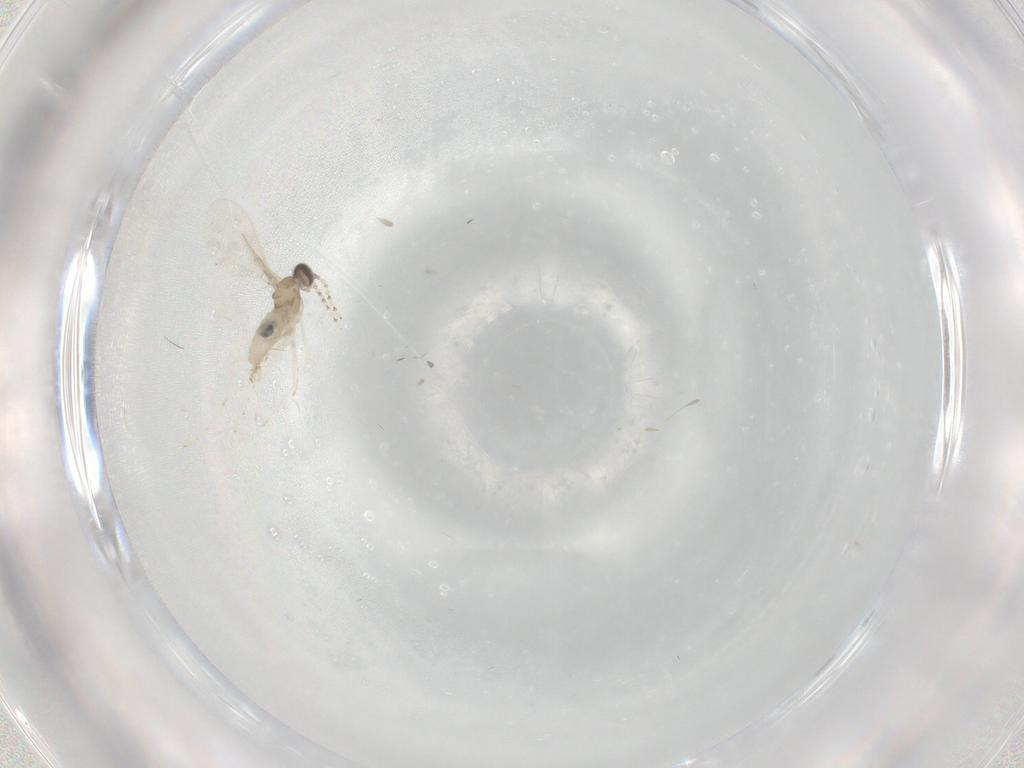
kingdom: Animalia
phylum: Arthropoda
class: Insecta
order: Diptera
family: Cecidomyiidae
